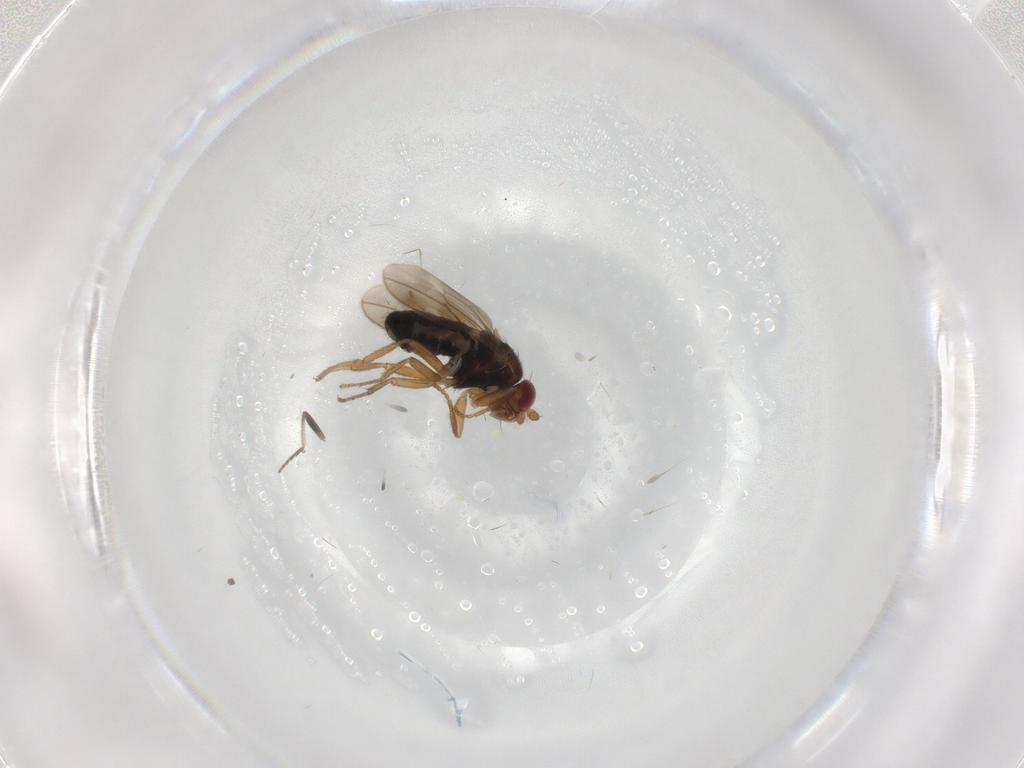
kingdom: Animalia
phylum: Arthropoda
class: Insecta
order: Diptera
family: Sphaeroceridae
